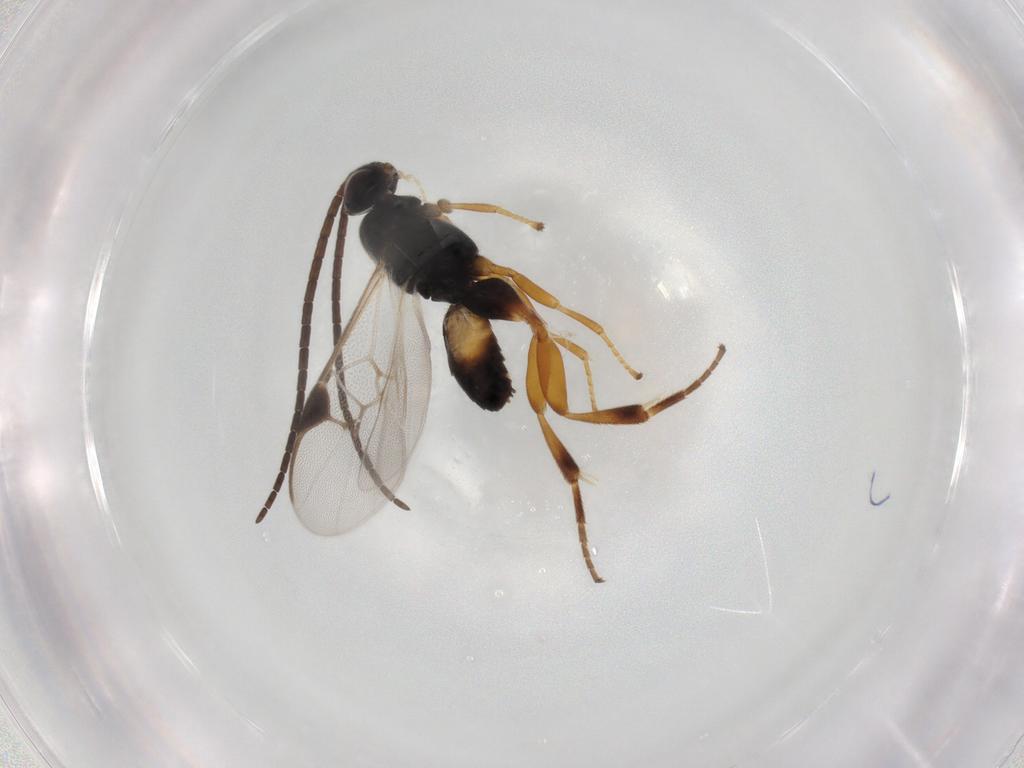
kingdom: Animalia
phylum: Arthropoda
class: Insecta
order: Hymenoptera
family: Braconidae
